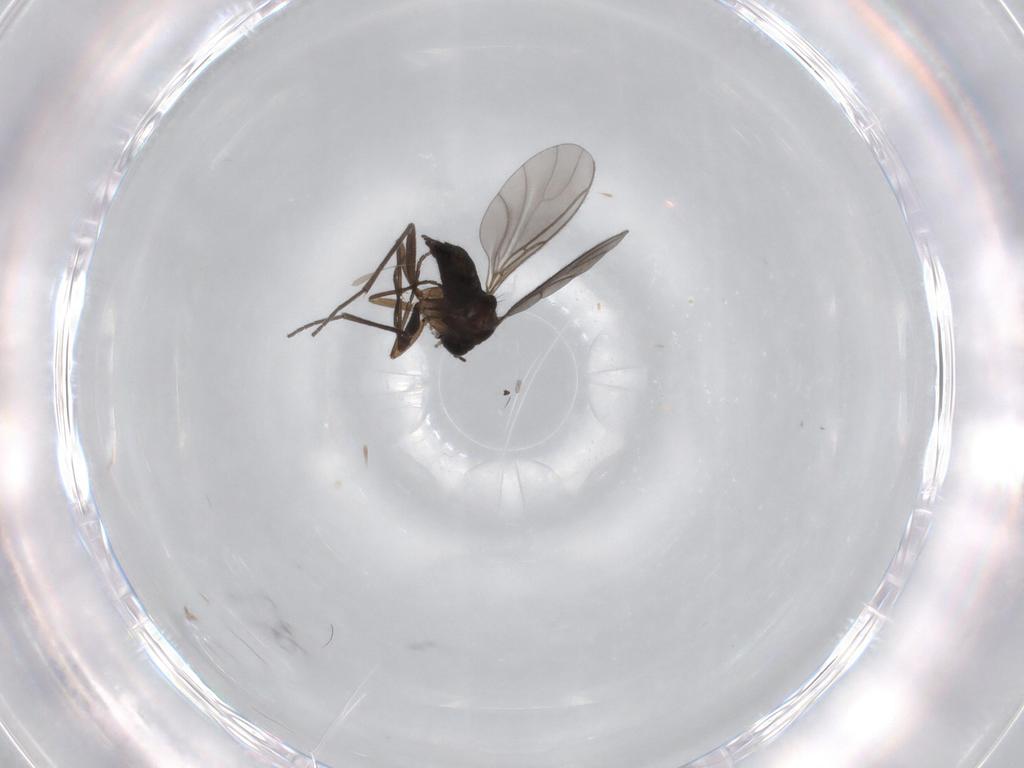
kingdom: Animalia
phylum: Arthropoda
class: Insecta
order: Diptera
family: Sciaridae
